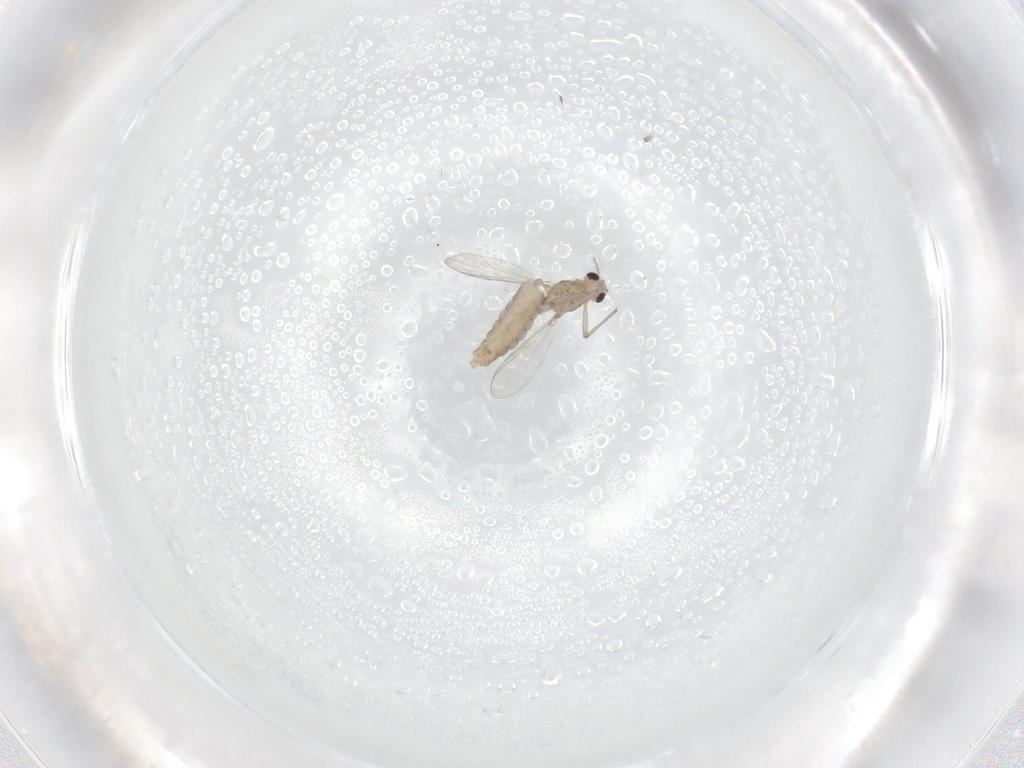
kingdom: Animalia
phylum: Arthropoda
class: Insecta
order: Diptera
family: Chironomidae
